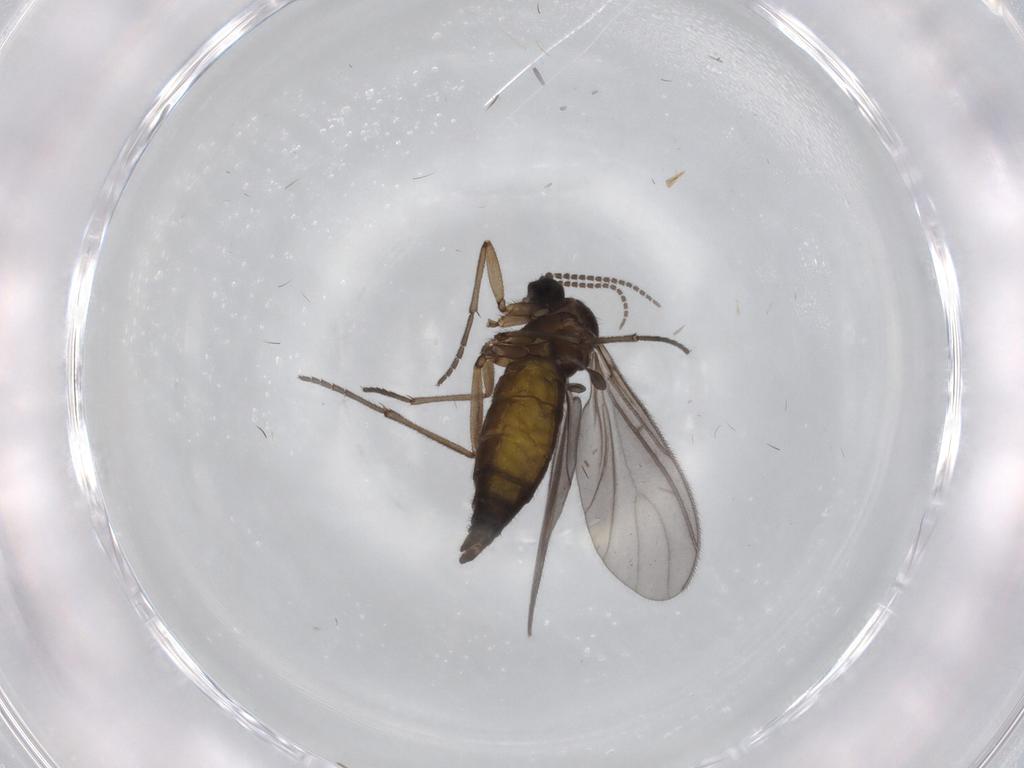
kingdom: Animalia
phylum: Arthropoda
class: Insecta
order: Diptera
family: Sciaridae
